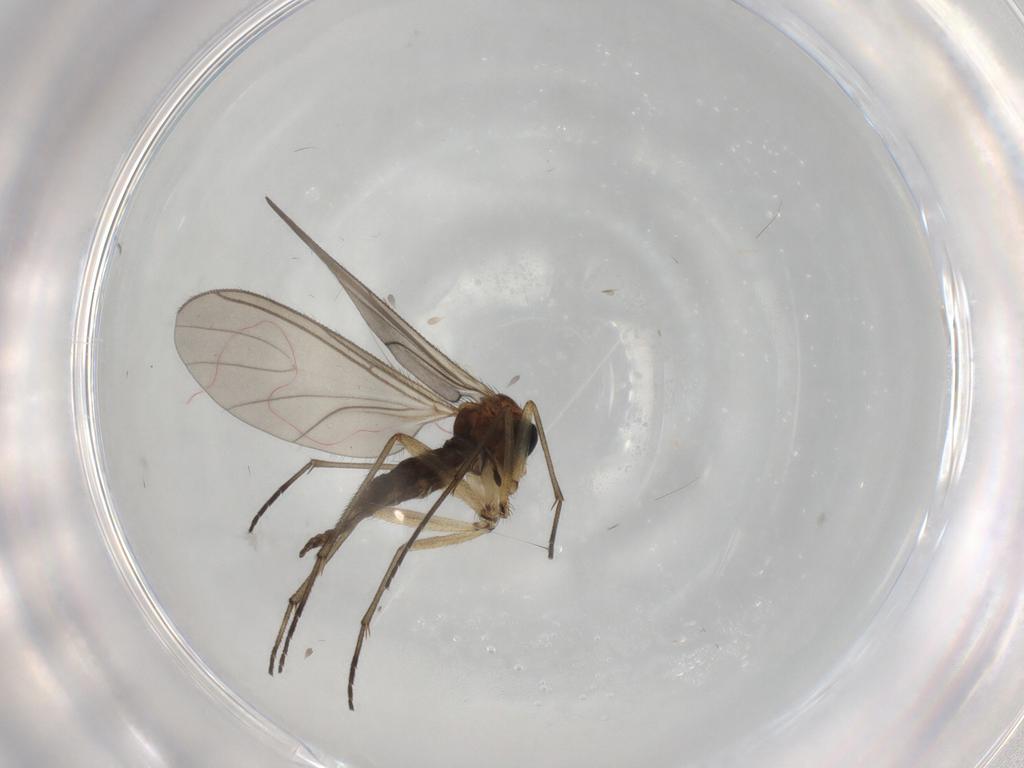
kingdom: Animalia
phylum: Arthropoda
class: Insecta
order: Diptera
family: Sciaridae
